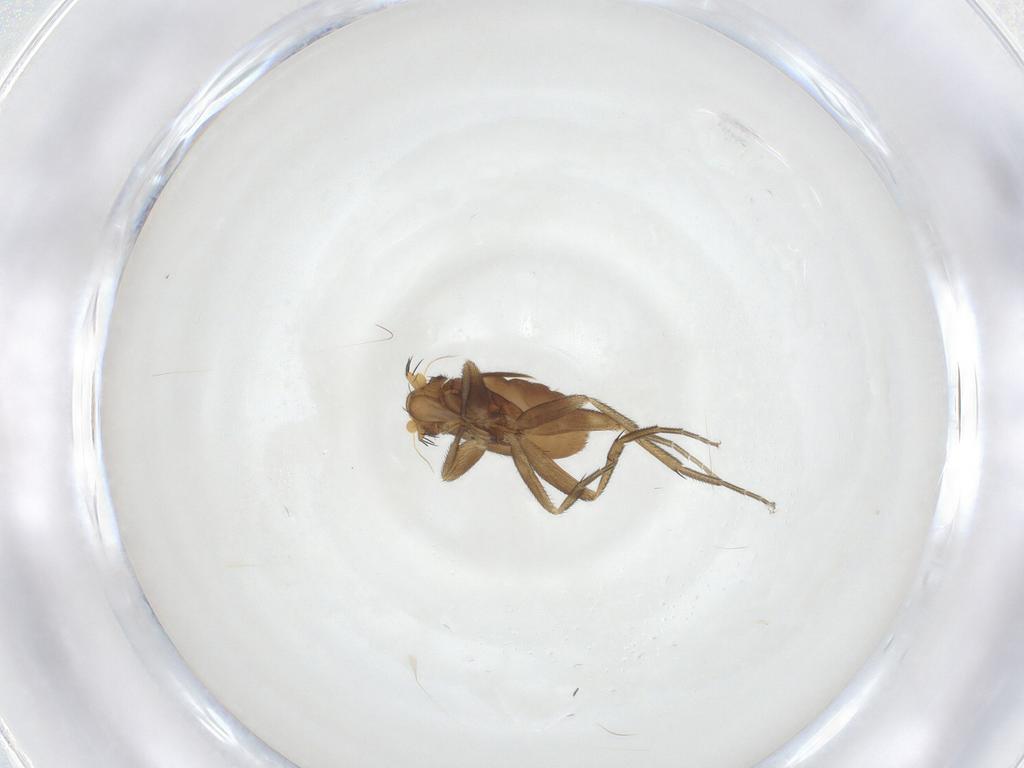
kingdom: Animalia
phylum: Arthropoda
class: Insecta
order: Diptera
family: Phoridae
